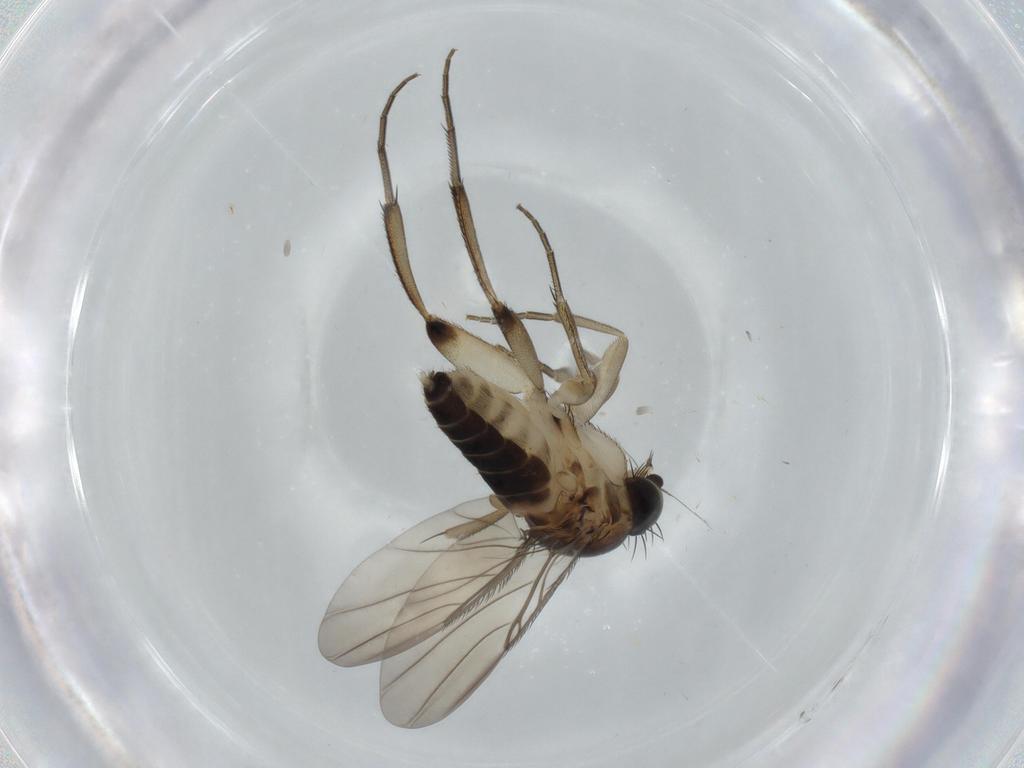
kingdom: Animalia
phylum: Arthropoda
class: Insecta
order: Diptera
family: Phoridae
